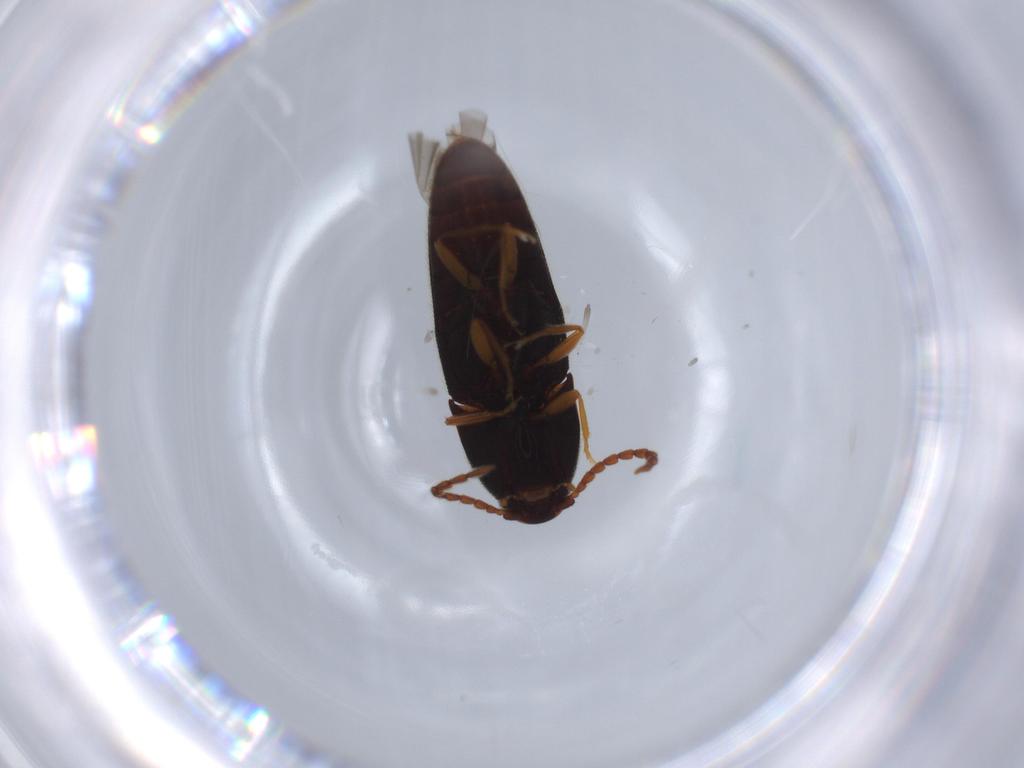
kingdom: Animalia
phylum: Arthropoda
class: Insecta
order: Coleoptera
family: Elateridae
